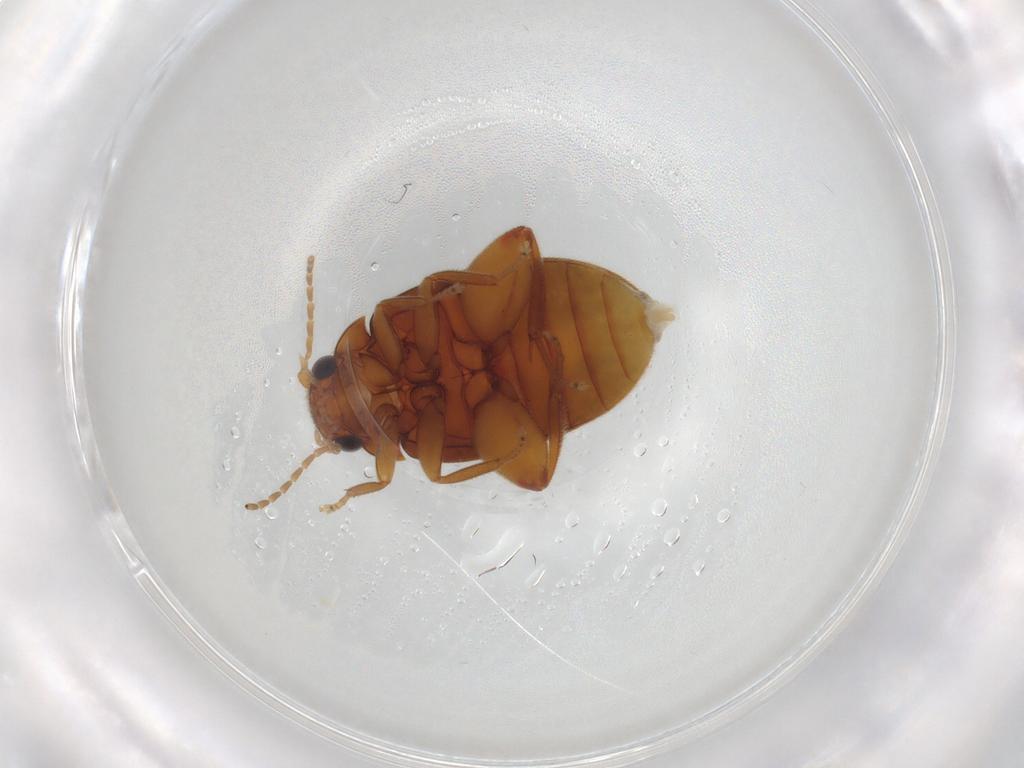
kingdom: Animalia
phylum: Arthropoda
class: Insecta
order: Coleoptera
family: Scirtidae
